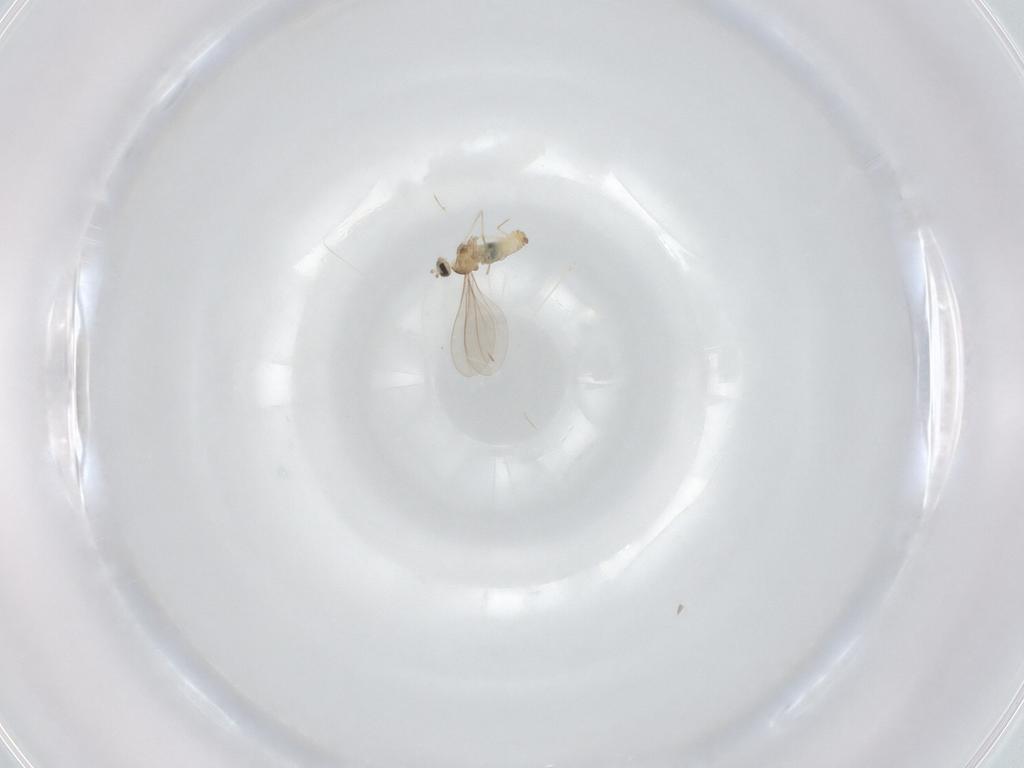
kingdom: Animalia
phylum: Arthropoda
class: Insecta
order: Diptera
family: Cecidomyiidae
